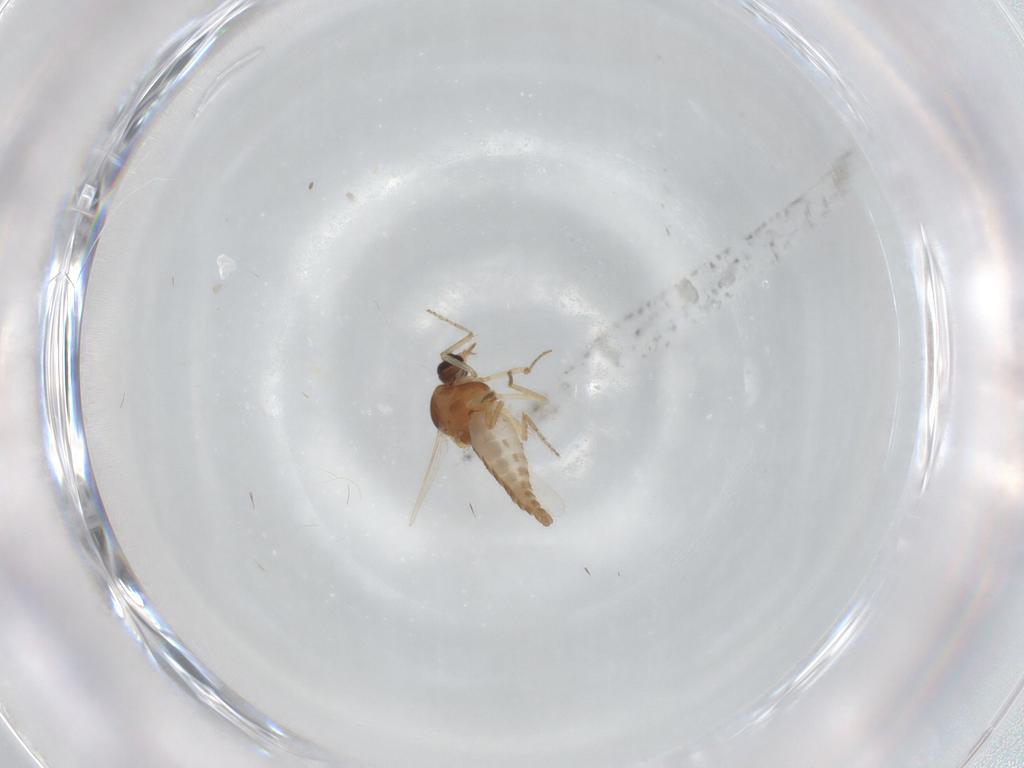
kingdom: Animalia
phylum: Arthropoda
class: Insecta
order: Diptera
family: Ceratopogonidae
